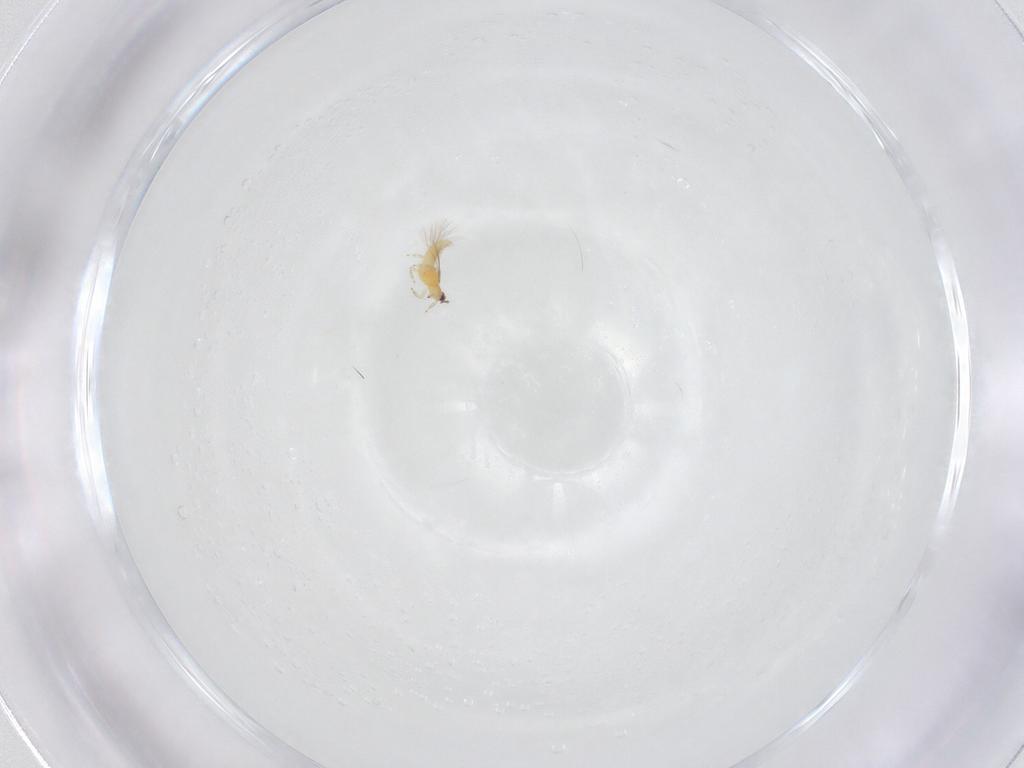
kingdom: Animalia
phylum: Arthropoda
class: Insecta
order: Thysanoptera
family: Thripidae
